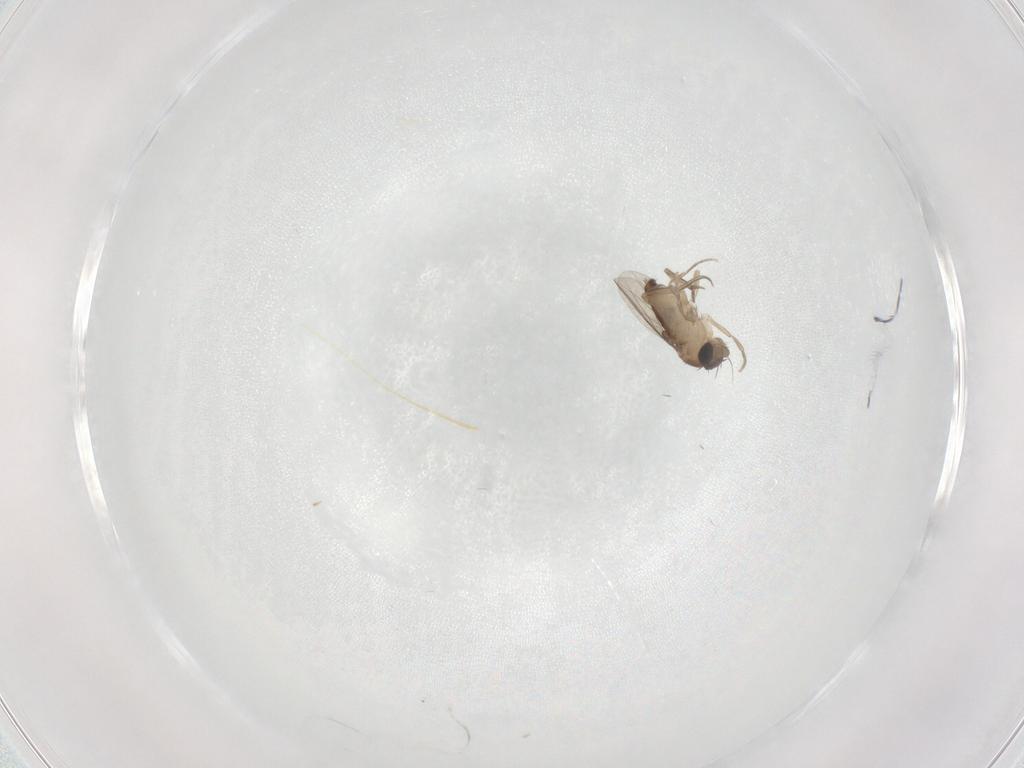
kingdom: Animalia
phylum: Arthropoda
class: Insecta
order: Diptera
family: Phoridae
